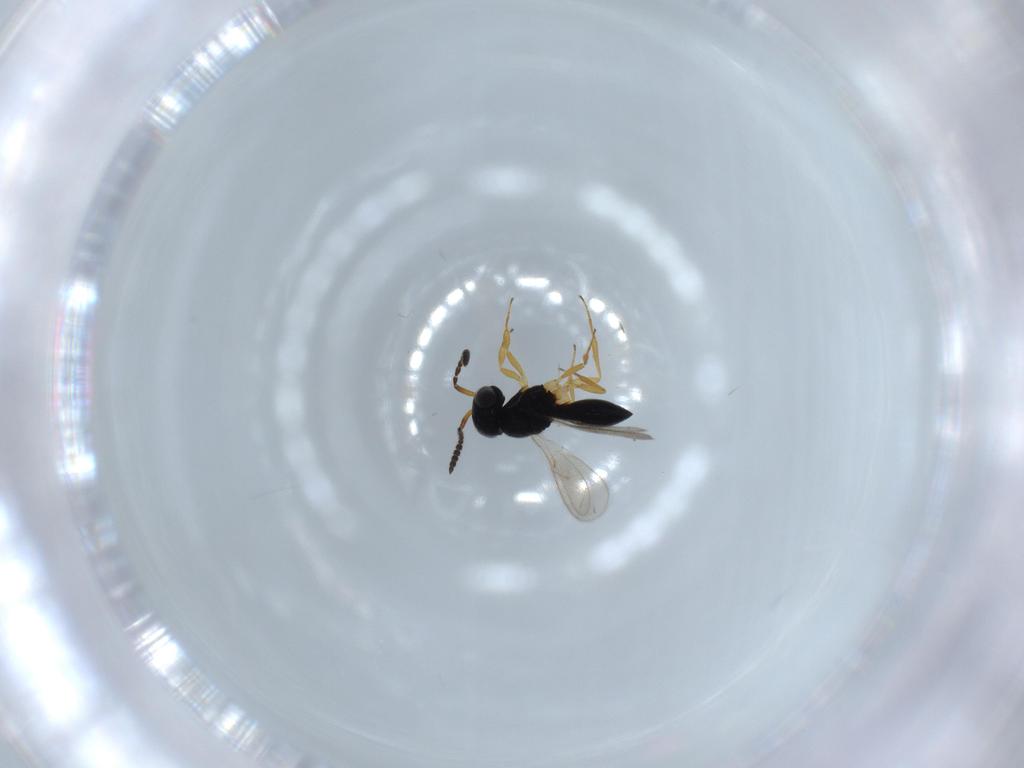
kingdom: Animalia
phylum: Arthropoda
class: Insecta
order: Hymenoptera
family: Scelionidae
